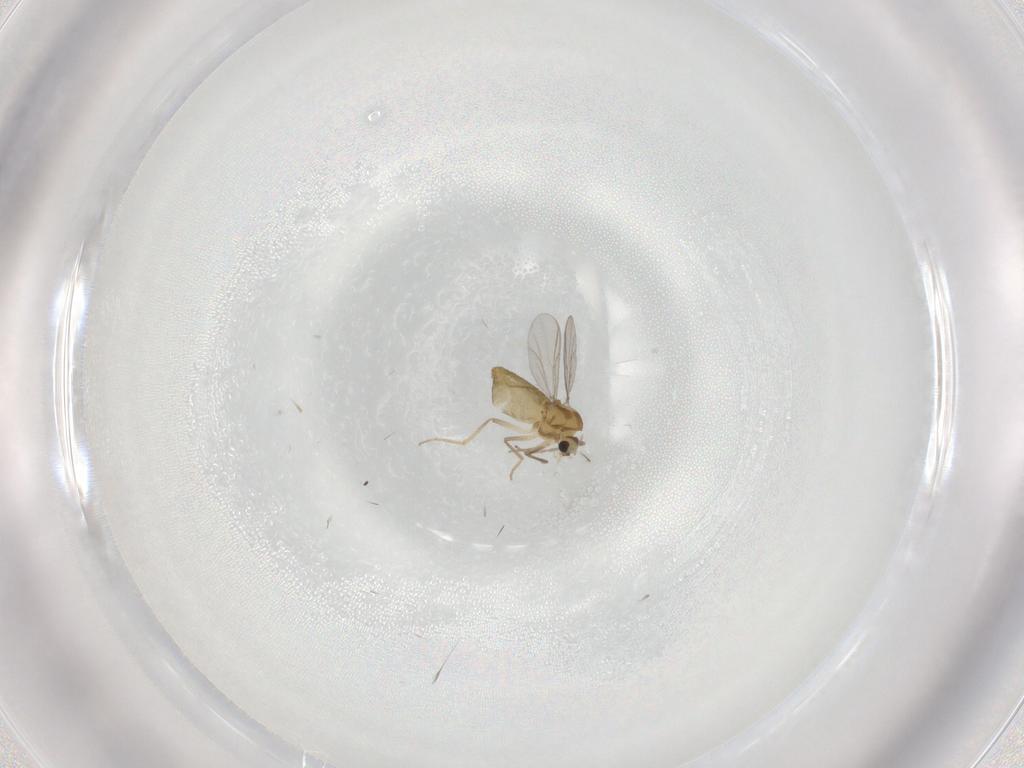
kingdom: Animalia
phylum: Arthropoda
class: Insecta
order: Diptera
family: Chironomidae
